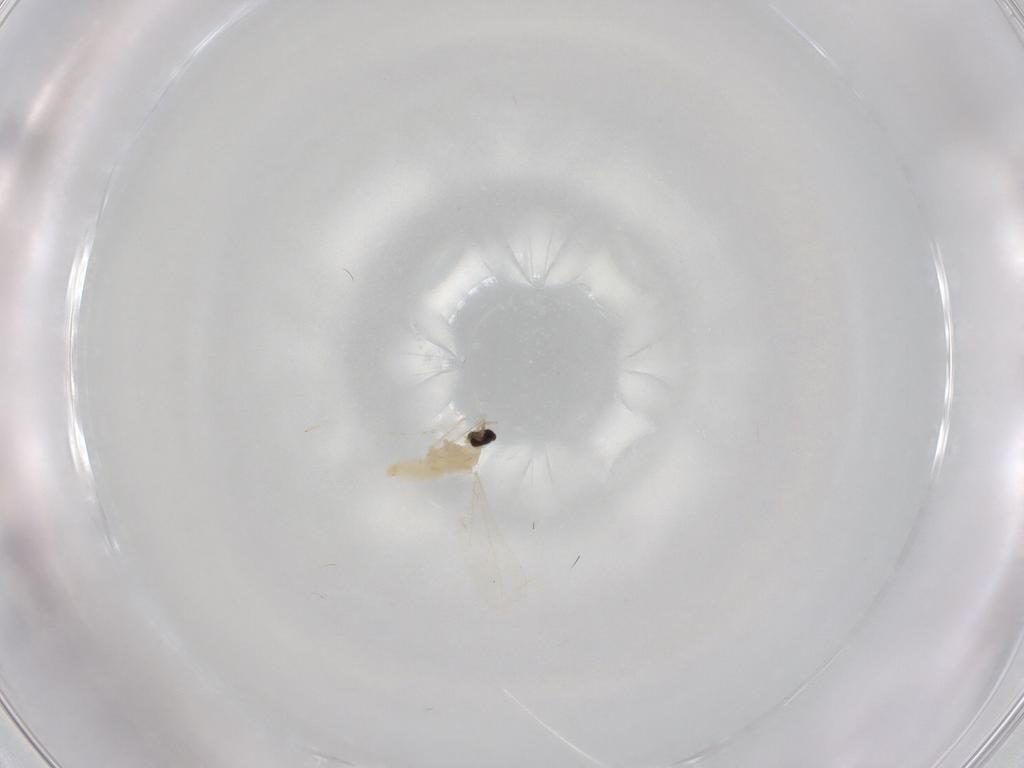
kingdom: Animalia
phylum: Arthropoda
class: Insecta
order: Diptera
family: Cecidomyiidae
